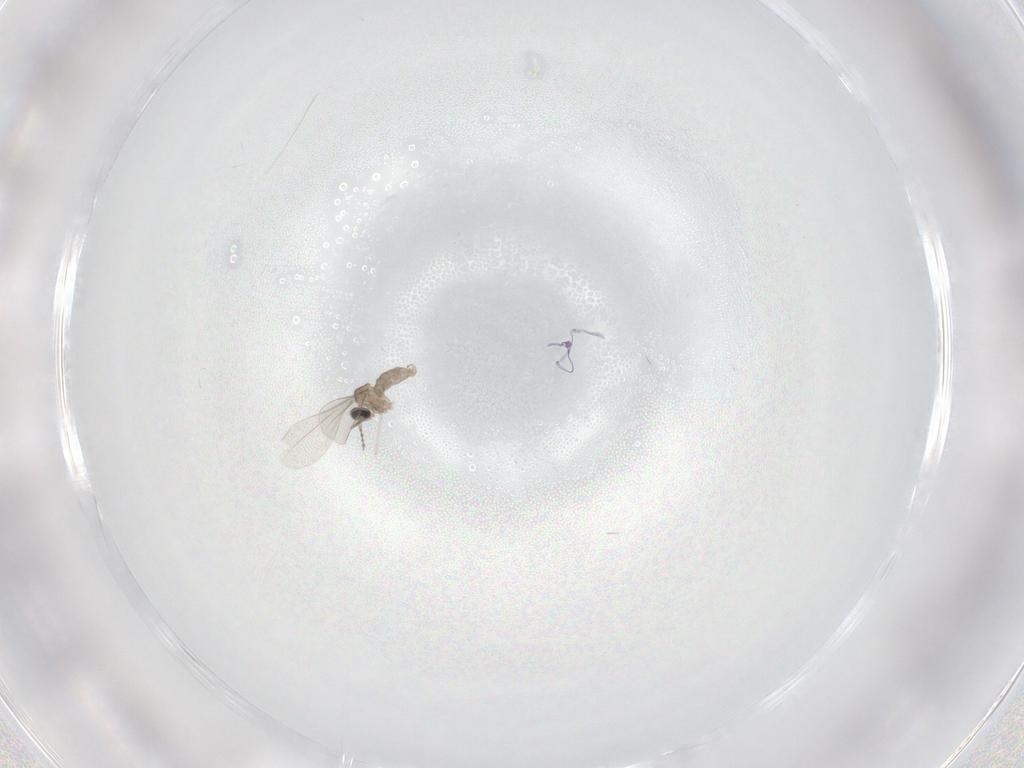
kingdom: Animalia
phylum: Arthropoda
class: Insecta
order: Diptera
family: Cecidomyiidae
